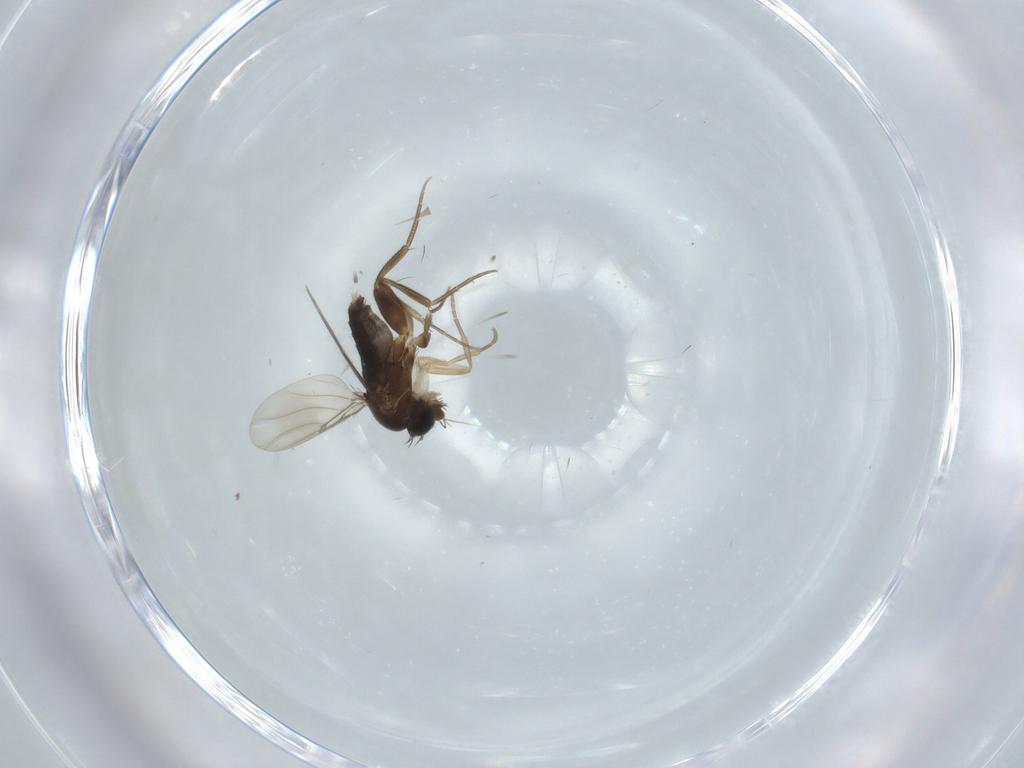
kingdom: Animalia
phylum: Arthropoda
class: Insecta
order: Diptera
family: Phoridae
